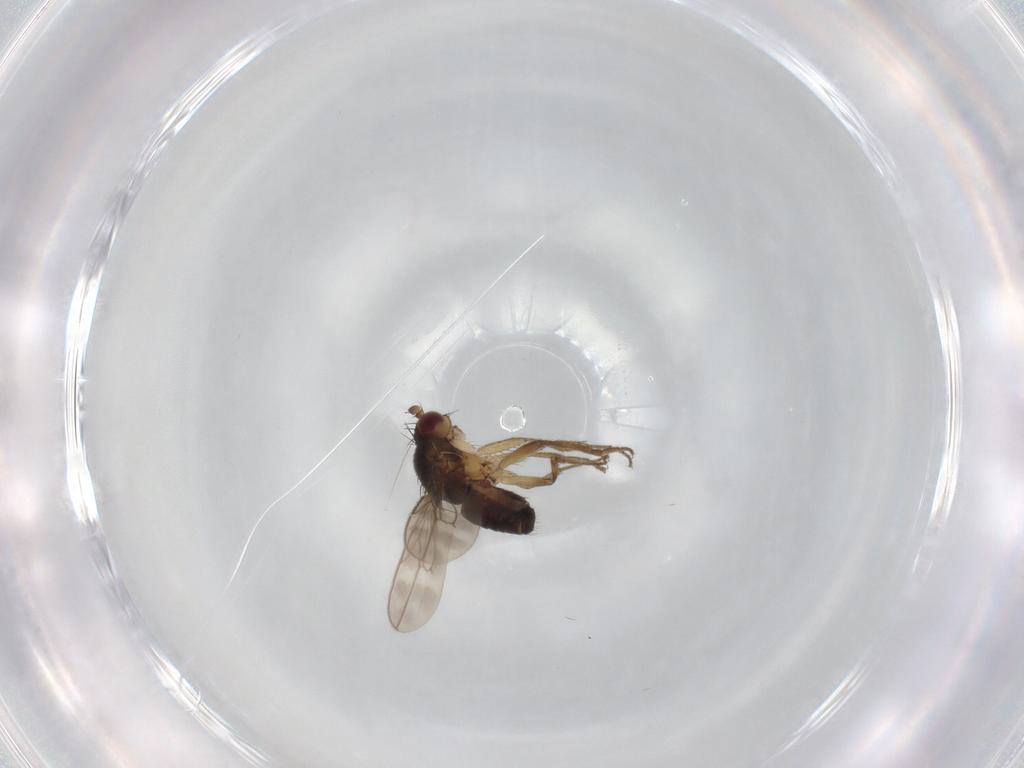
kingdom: Animalia
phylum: Arthropoda
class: Insecta
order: Diptera
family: Sphaeroceridae
